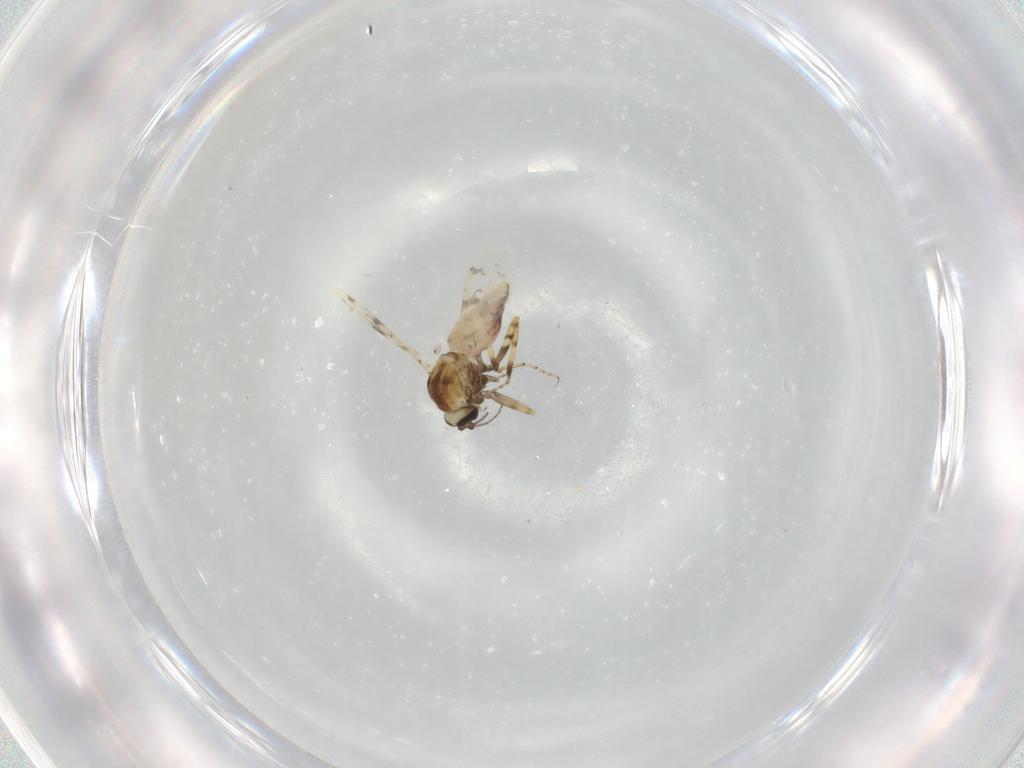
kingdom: Animalia
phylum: Arthropoda
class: Insecta
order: Diptera
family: Ceratopogonidae
